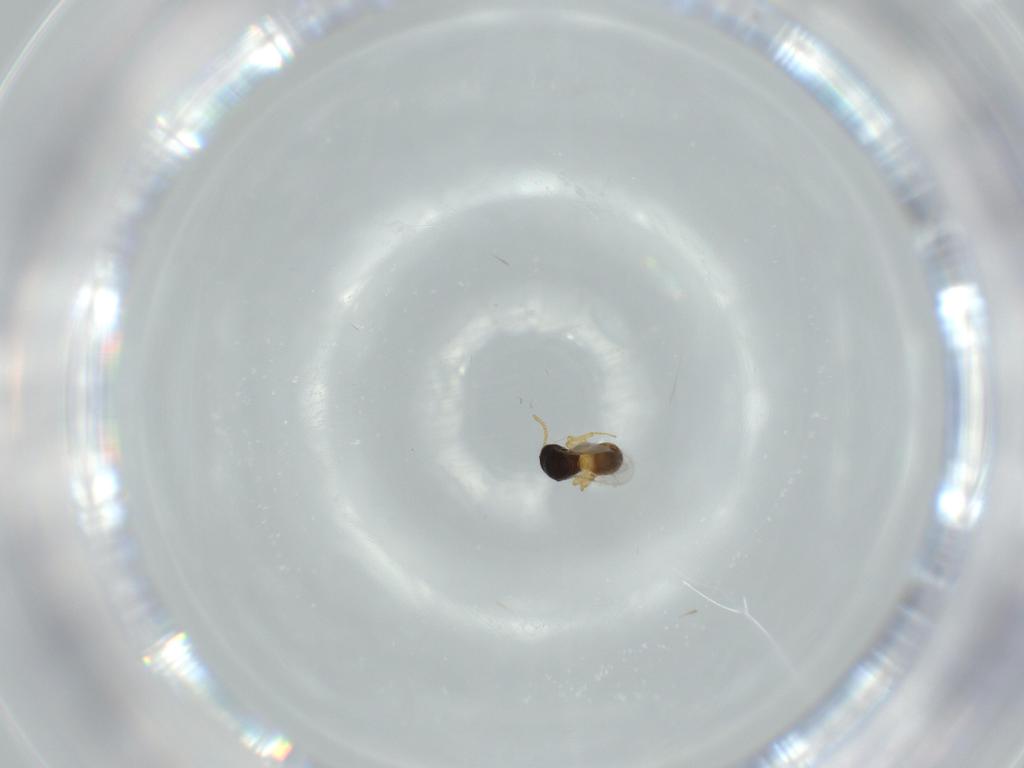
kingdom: Animalia
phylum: Arthropoda
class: Insecta
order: Hymenoptera
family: Scelionidae
